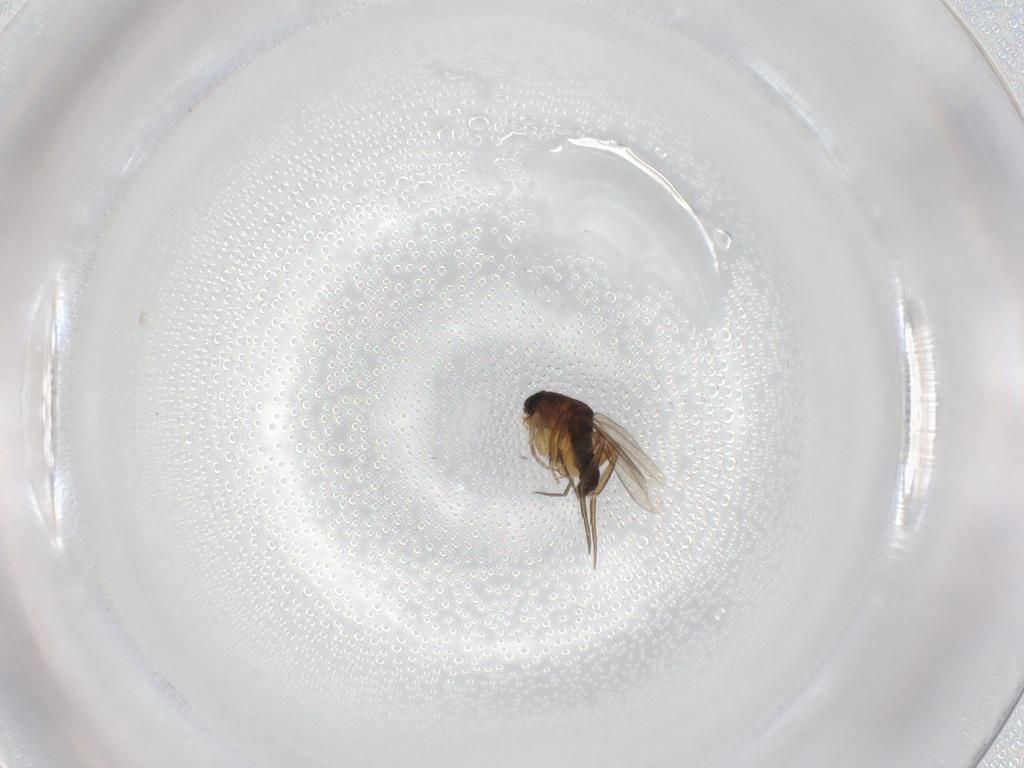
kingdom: Animalia
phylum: Arthropoda
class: Insecta
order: Diptera
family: Phoridae
